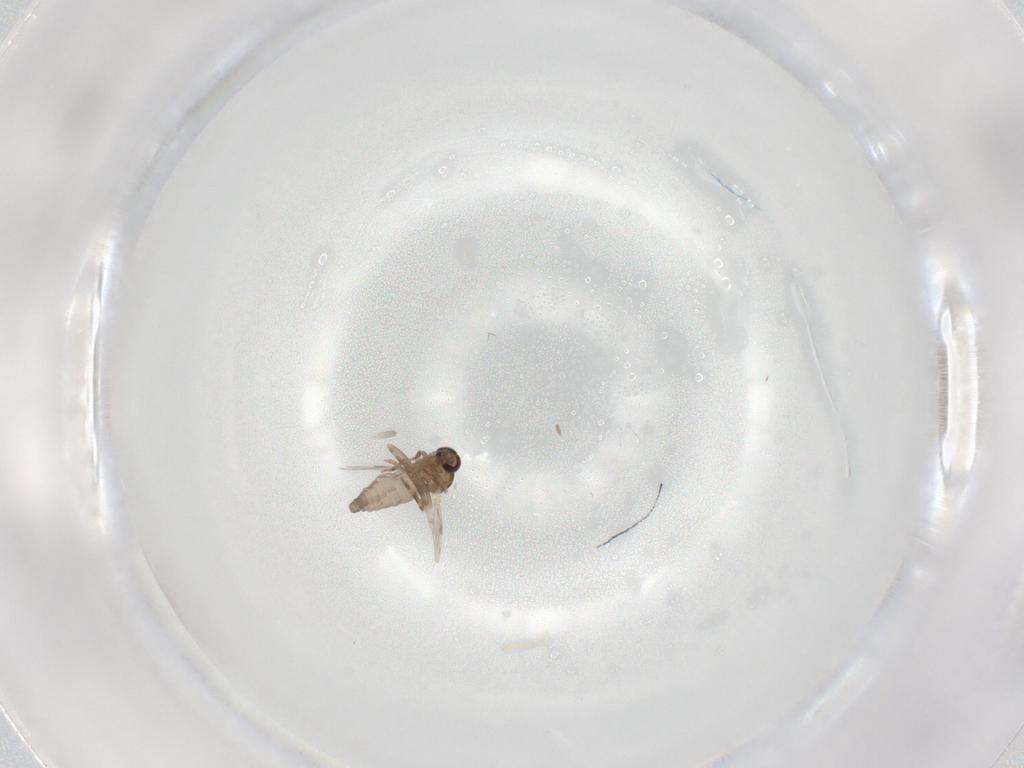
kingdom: Animalia
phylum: Arthropoda
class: Insecta
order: Diptera
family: Ceratopogonidae
